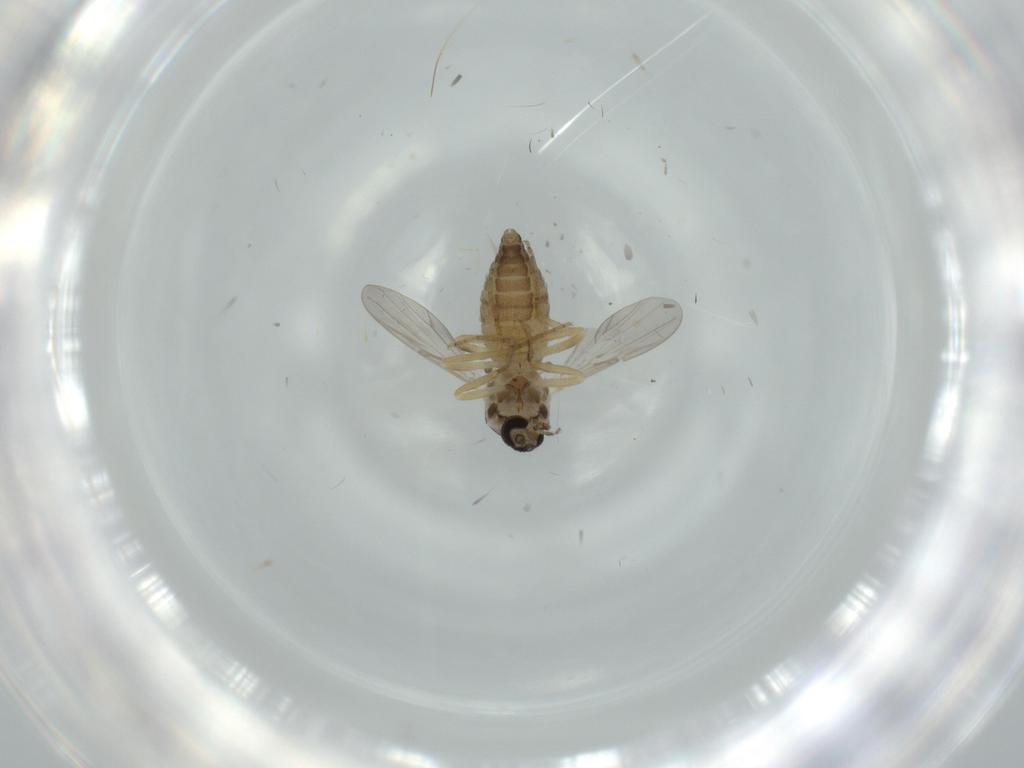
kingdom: Animalia
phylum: Arthropoda
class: Insecta
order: Diptera
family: Ceratopogonidae
